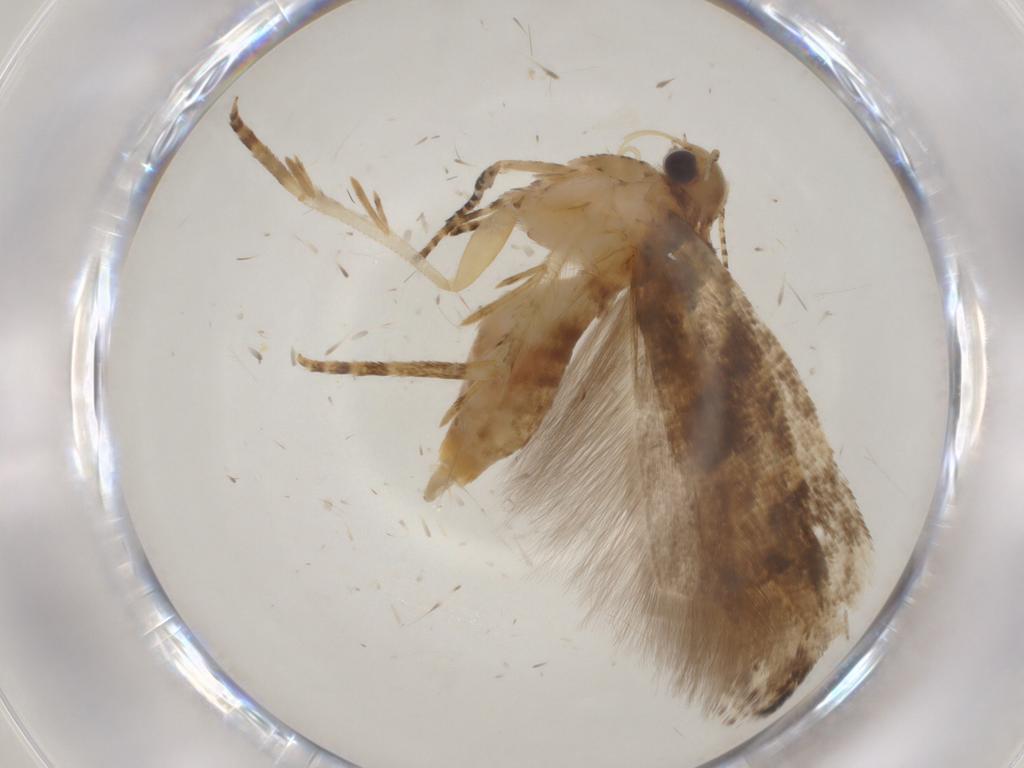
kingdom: Animalia
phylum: Arthropoda
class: Insecta
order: Lepidoptera
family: Gelechiidae
